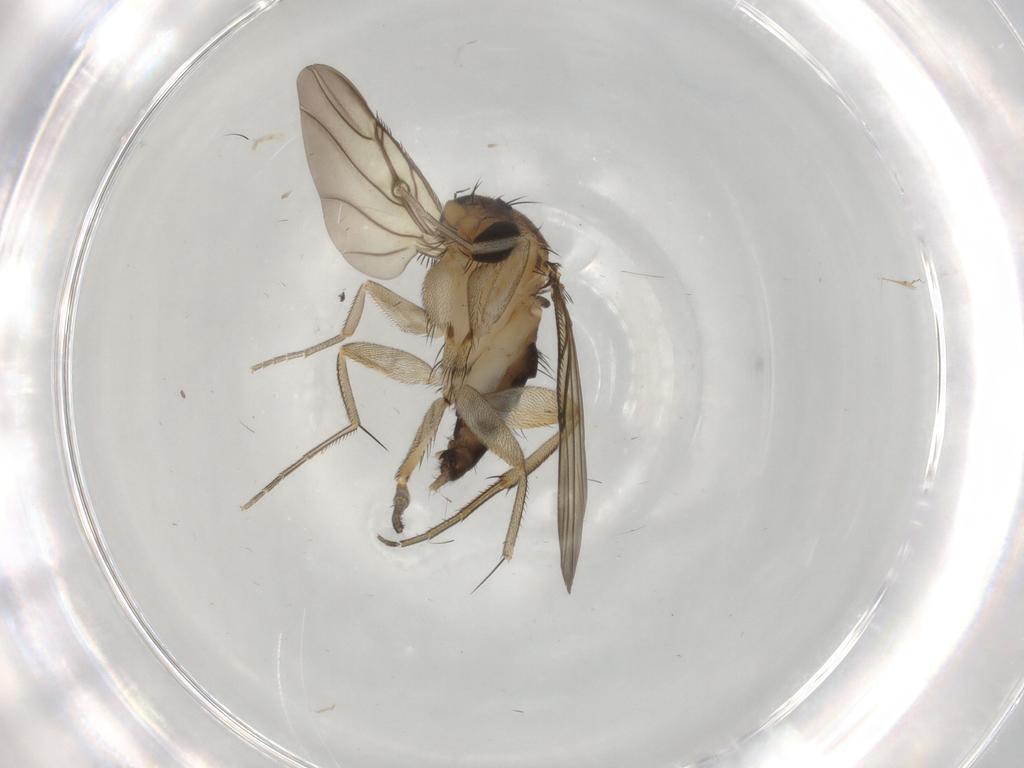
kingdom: Animalia
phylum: Arthropoda
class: Insecta
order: Diptera
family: Phoridae
